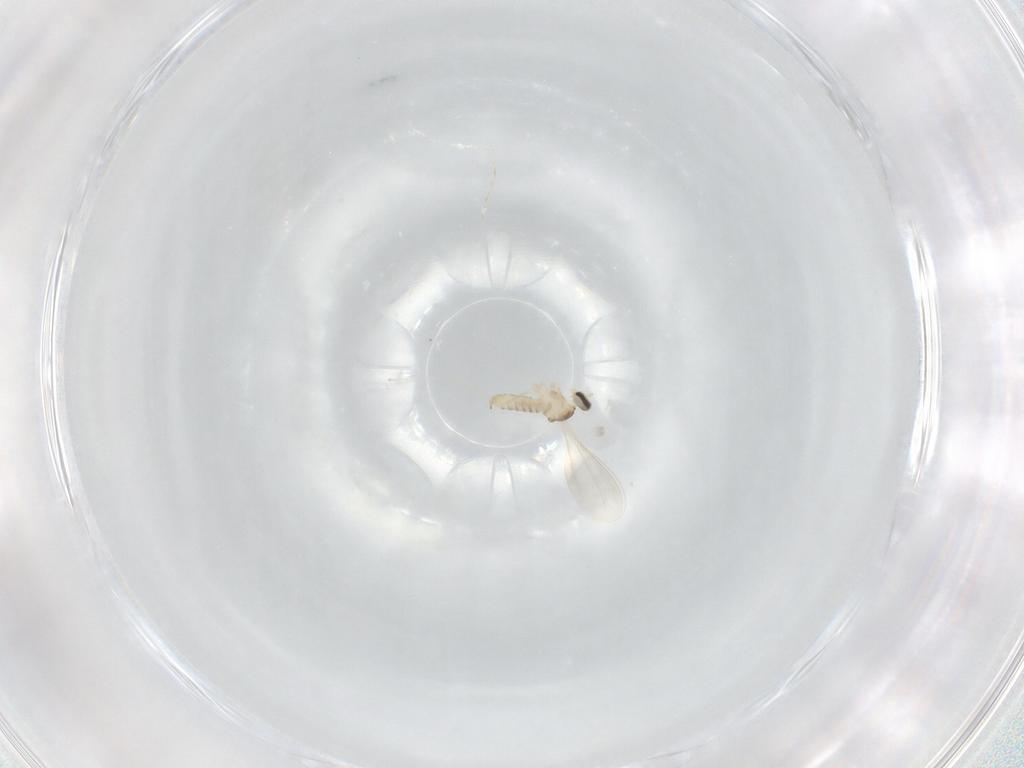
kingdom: Animalia
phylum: Arthropoda
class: Insecta
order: Diptera
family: Cecidomyiidae
